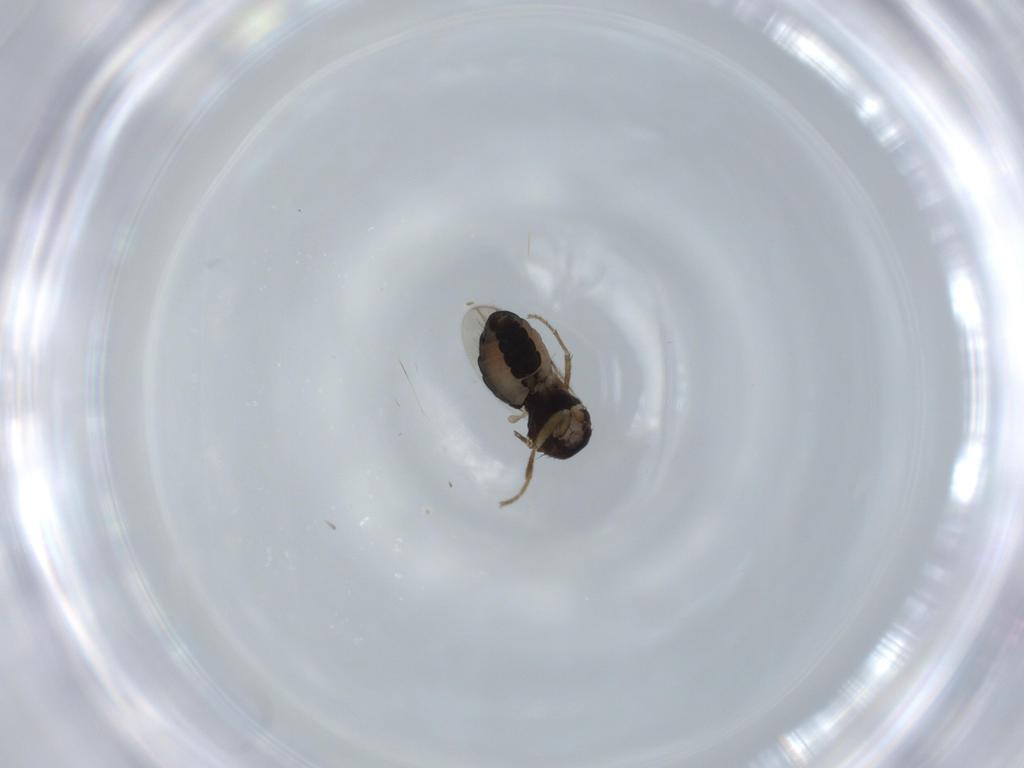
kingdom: Animalia
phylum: Arthropoda
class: Insecta
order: Diptera
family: Sphaeroceridae
